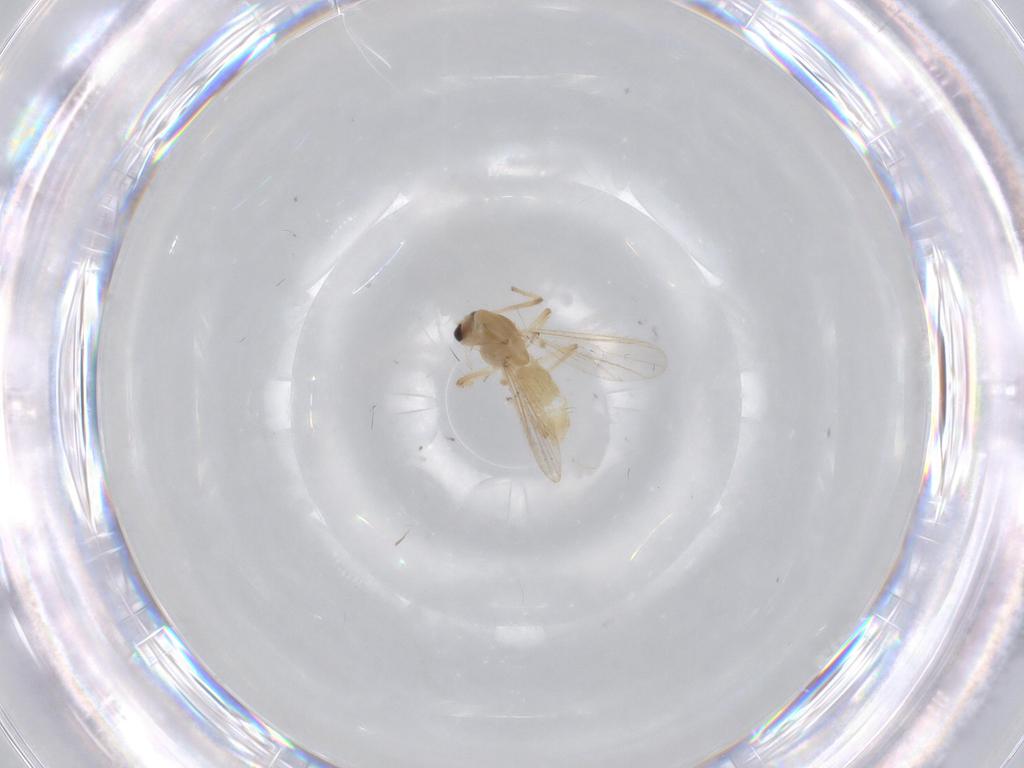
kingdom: Animalia
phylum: Arthropoda
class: Insecta
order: Diptera
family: Chironomidae
